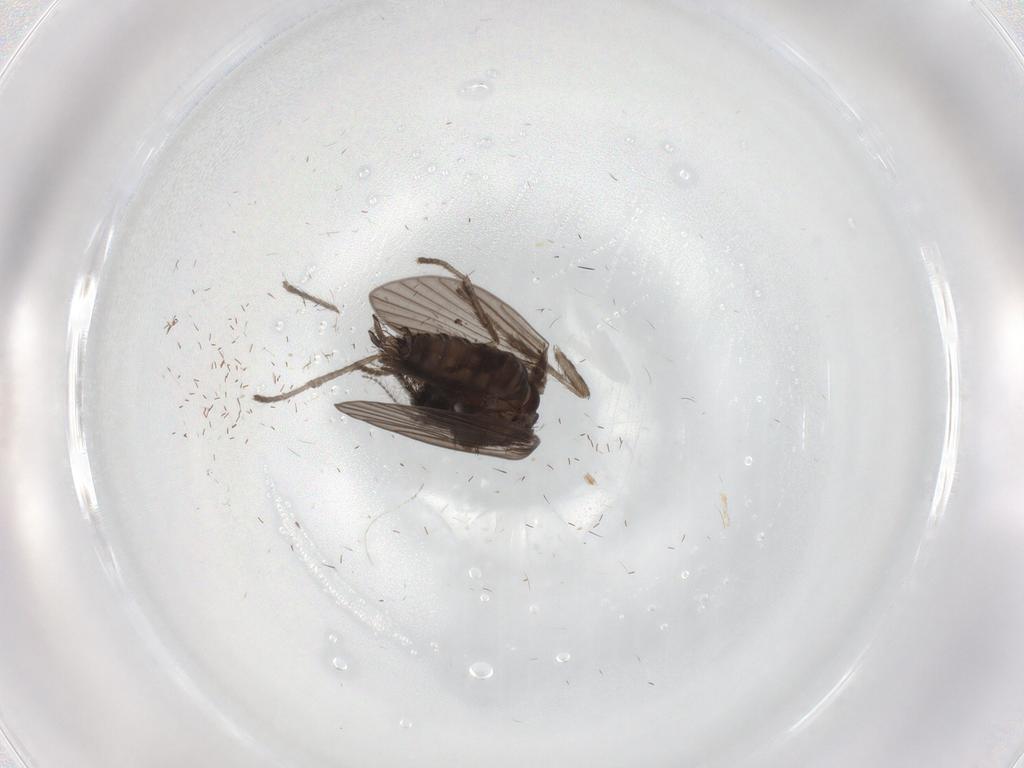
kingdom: Animalia
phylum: Arthropoda
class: Insecta
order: Diptera
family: Psychodidae
